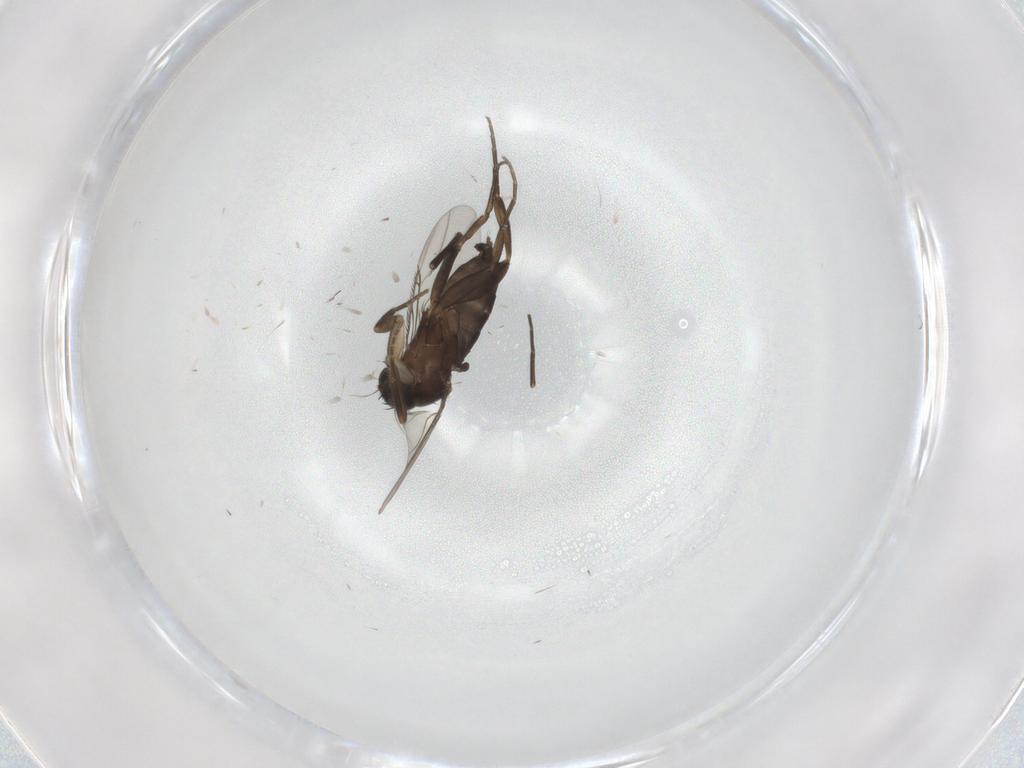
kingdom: Animalia
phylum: Arthropoda
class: Insecta
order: Diptera
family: Phoridae
